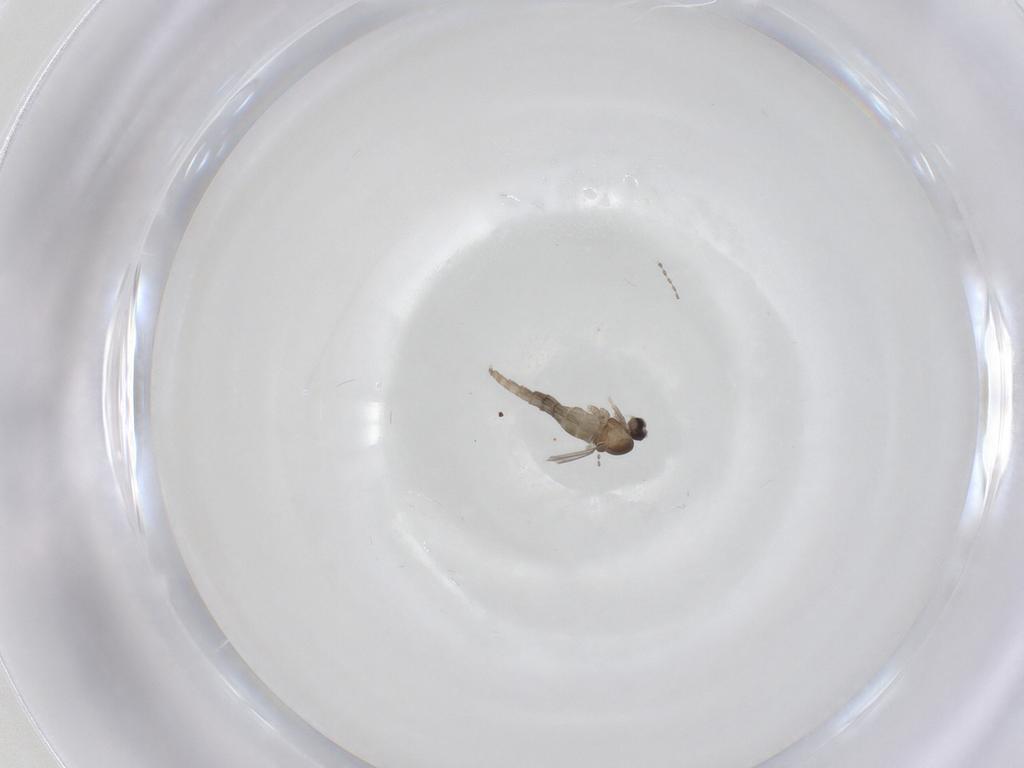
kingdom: Animalia
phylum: Arthropoda
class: Insecta
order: Diptera
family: Cecidomyiidae
